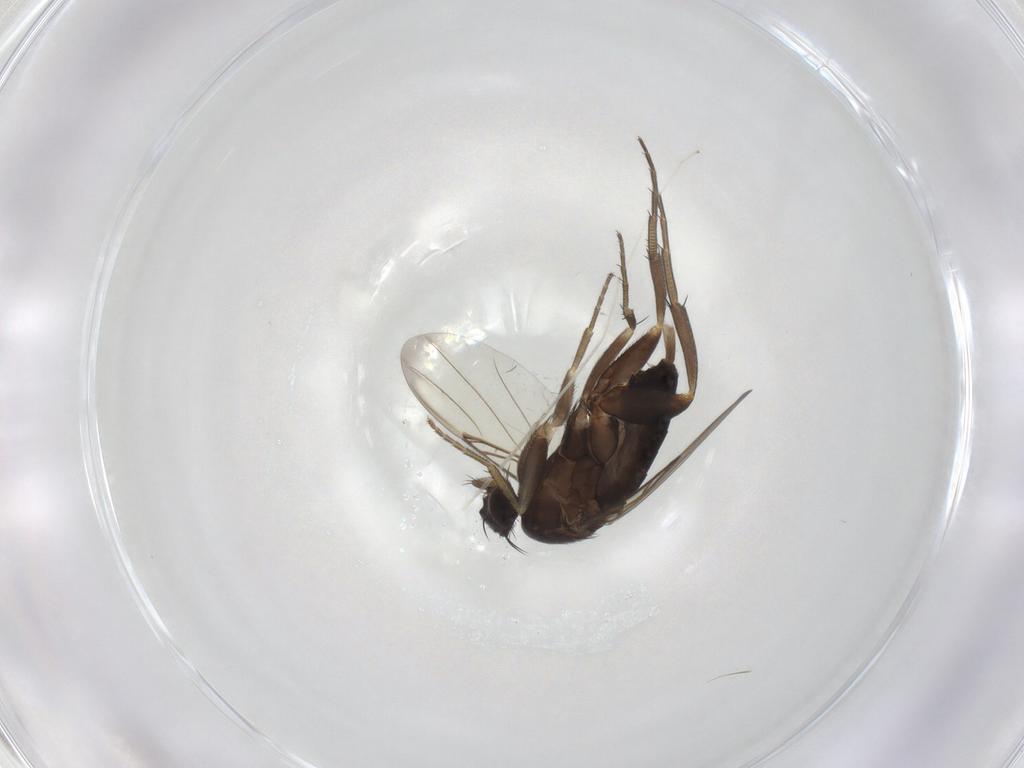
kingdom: Animalia
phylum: Arthropoda
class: Insecta
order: Diptera
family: Phoridae
